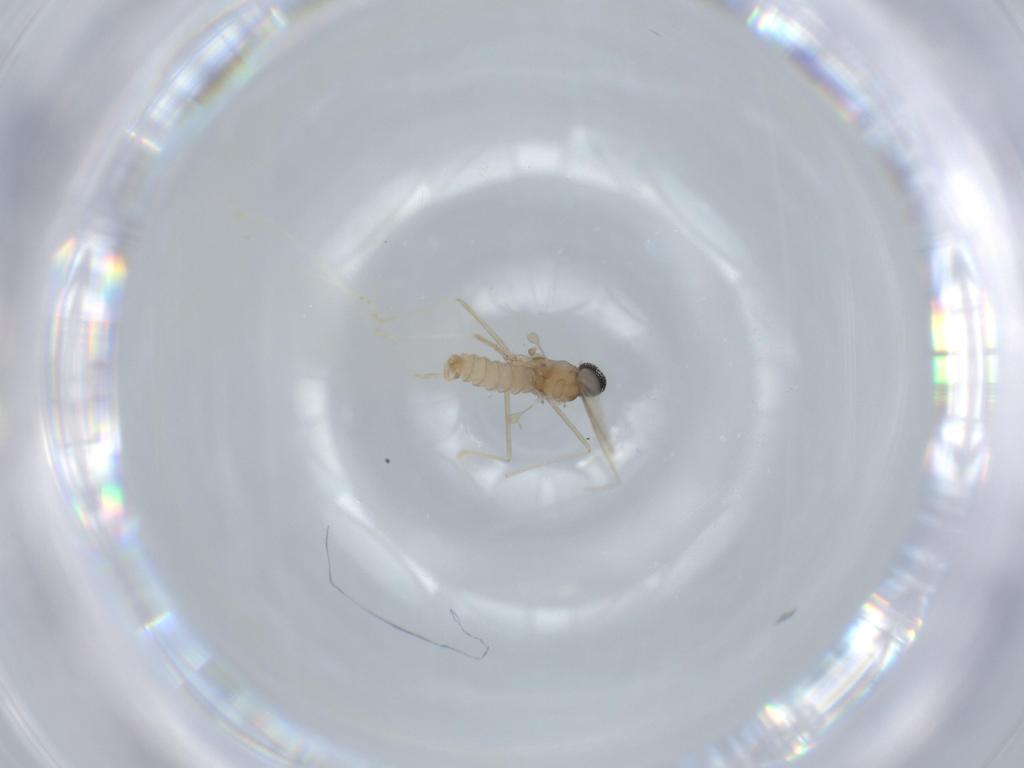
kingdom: Animalia
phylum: Arthropoda
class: Insecta
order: Diptera
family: Cecidomyiidae
